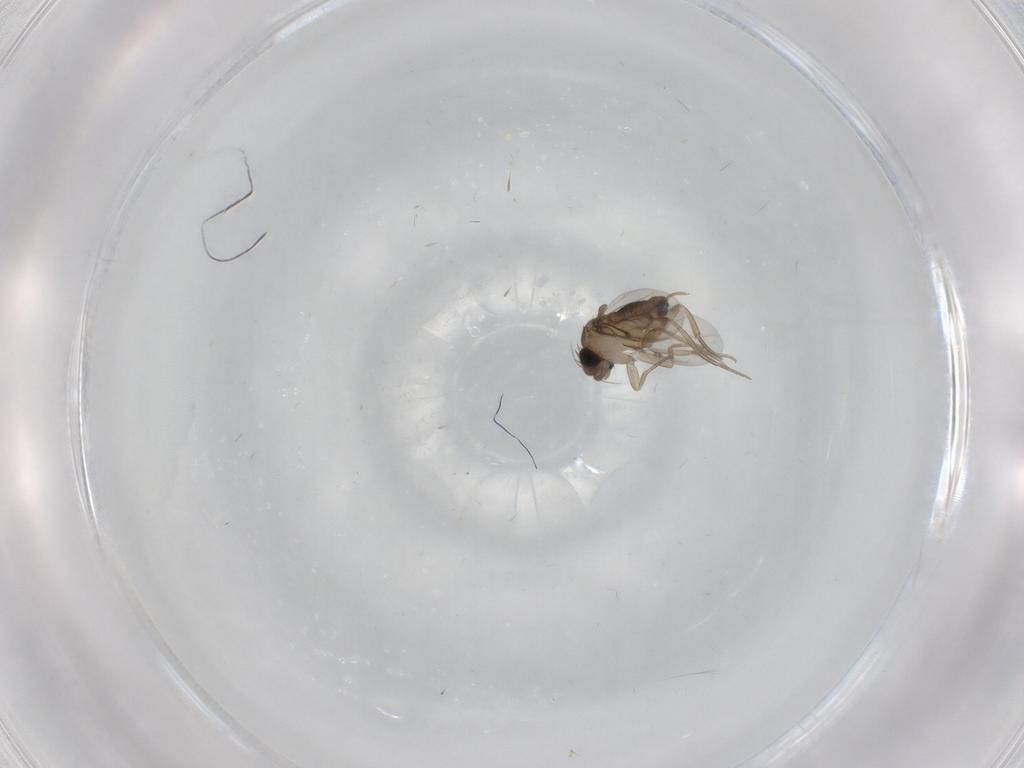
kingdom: Animalia
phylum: Arthropoda
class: Insecta
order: Diptera
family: Phoridae
